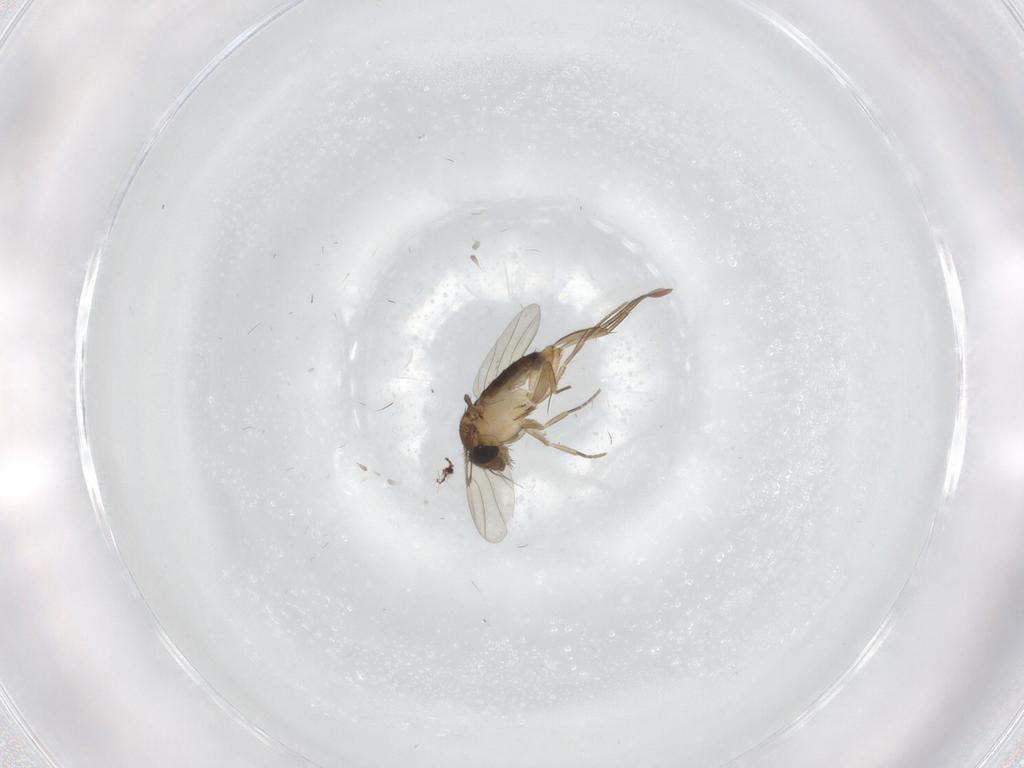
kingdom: Animalia
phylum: Arthropoda
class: Insecta
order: Diptera
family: Phoridae
